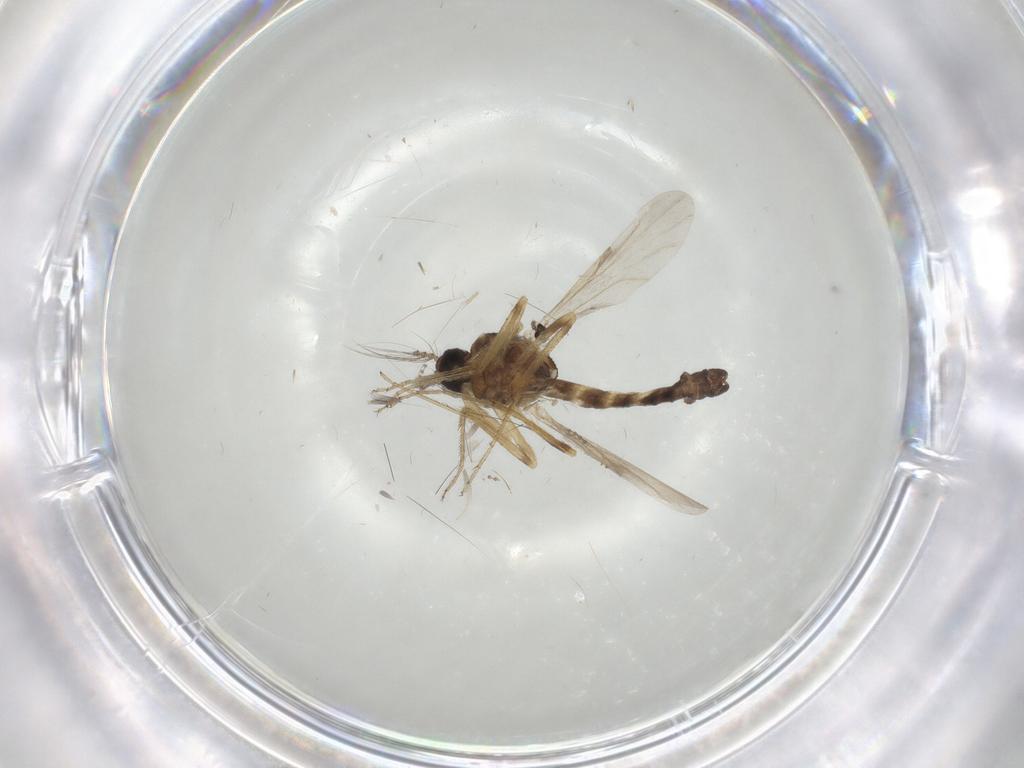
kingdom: Animalia
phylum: Arthropoda
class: Insecta
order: Diptera
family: Ceratopogonidae
